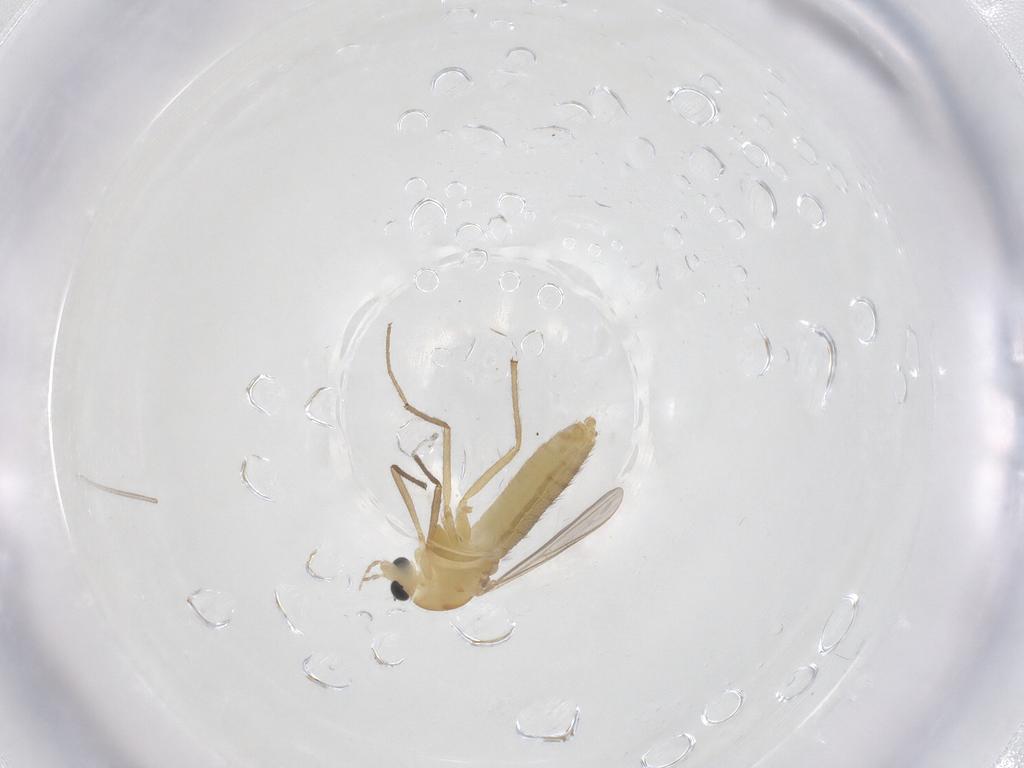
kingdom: Animalia
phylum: Arthropoda
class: Insecta
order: Diptera
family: Chironomidae
